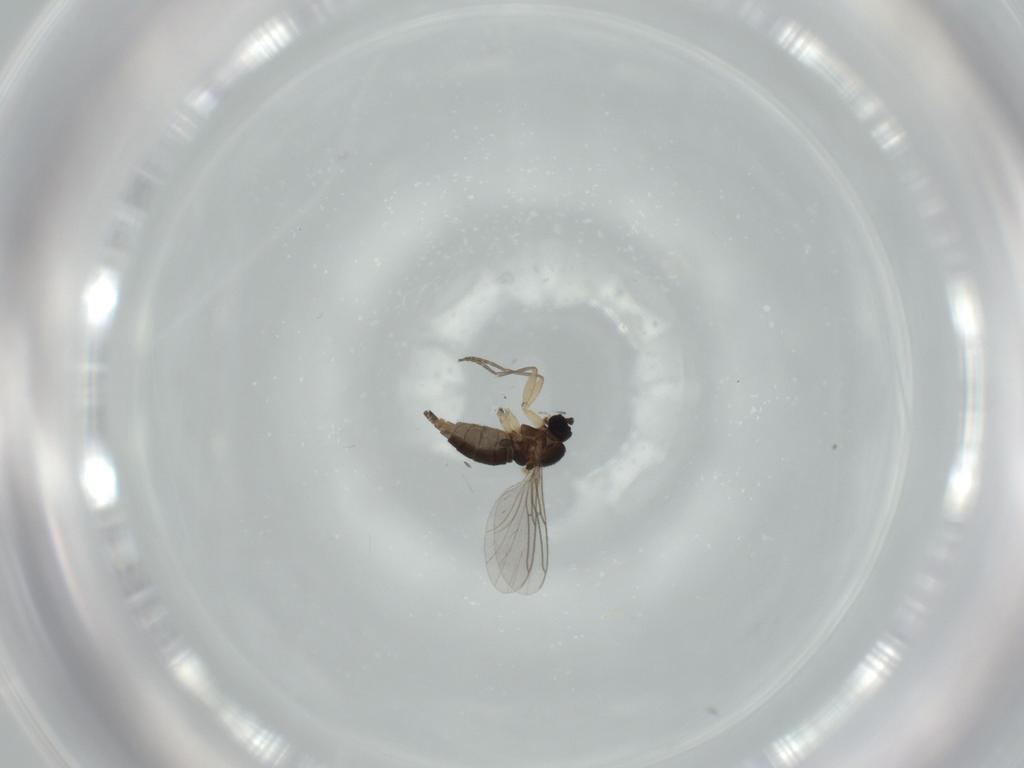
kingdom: Animalia
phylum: Arthropoda
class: Insecta
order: Diptera
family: Sciaridae
